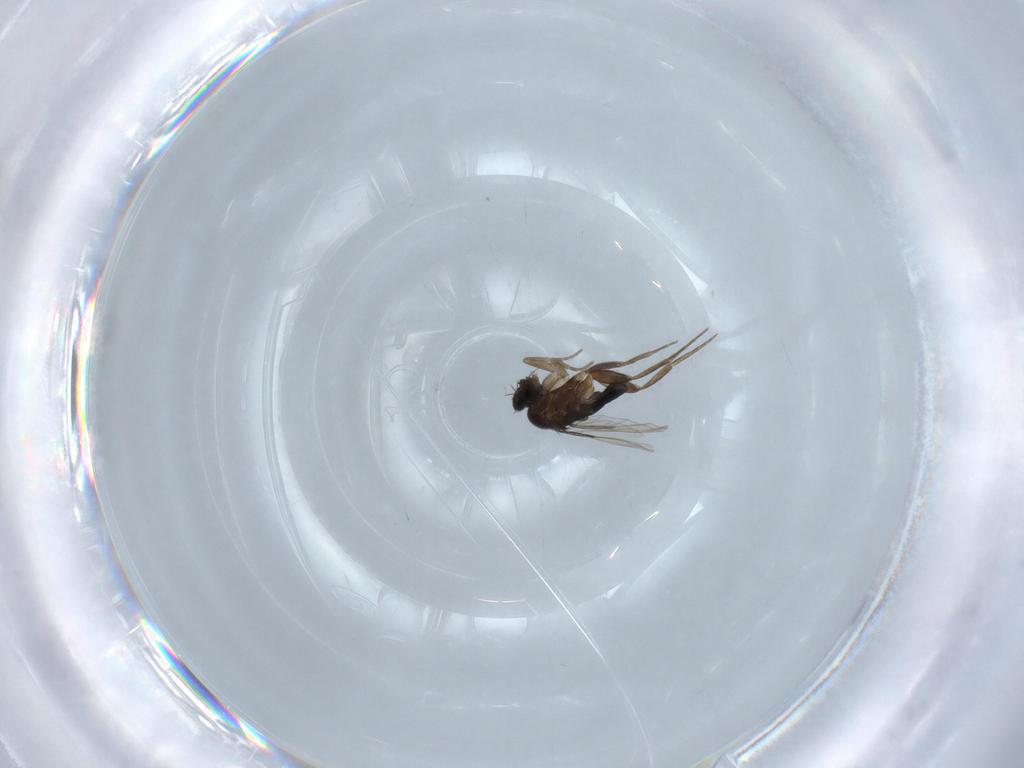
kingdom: Animalia
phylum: Arthropoda
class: Insecta
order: Diptera
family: Phoridae
